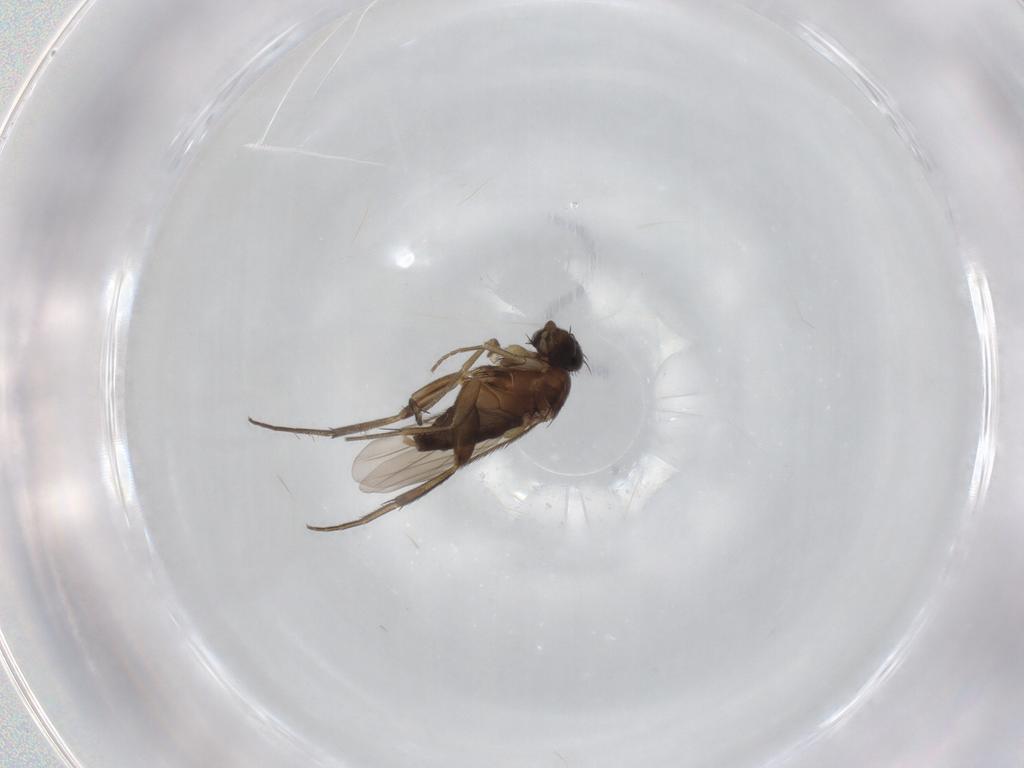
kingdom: Animalia
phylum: Arthropoda
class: Insecta
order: Diptera
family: Phoridae
